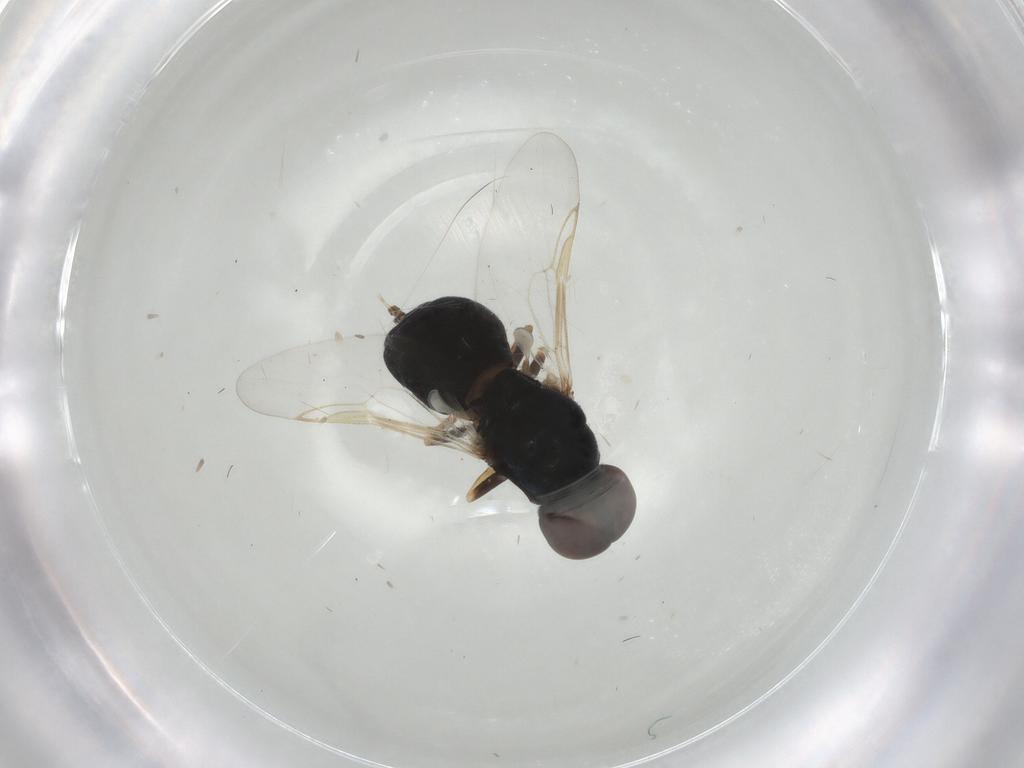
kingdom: Animalia
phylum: Arthropoda
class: Insecta
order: Diptera
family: Stratiomyidae
